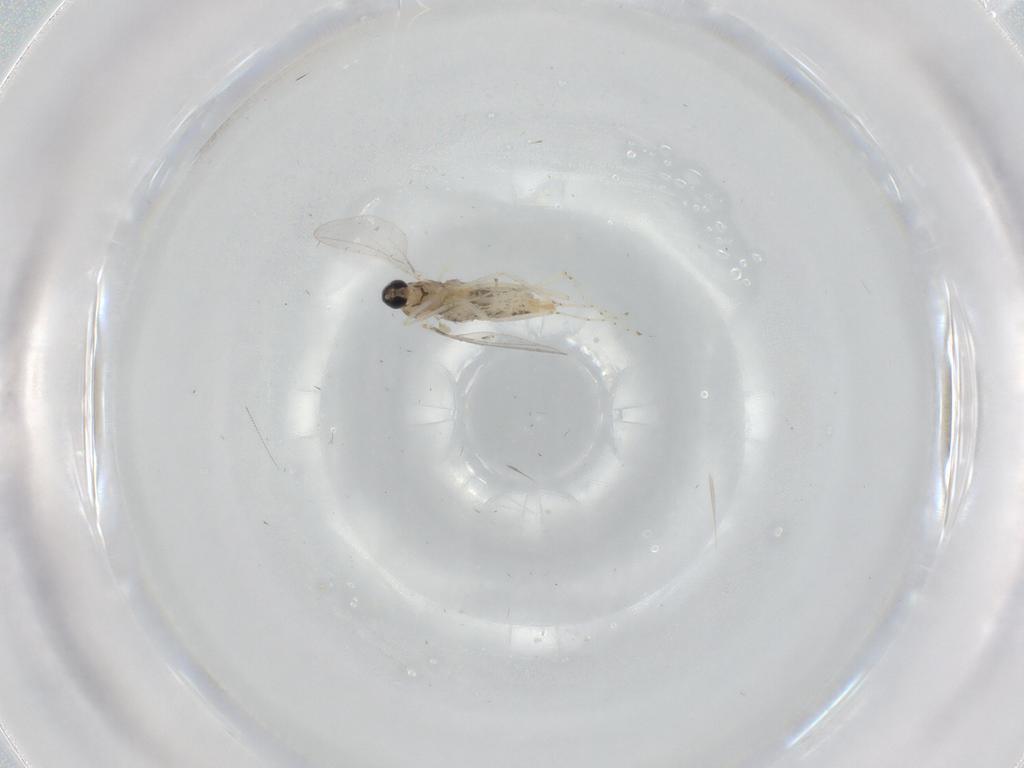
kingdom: Animalia
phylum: Arthropoda
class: Insecta
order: Diptera
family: Cecidomyiidae
